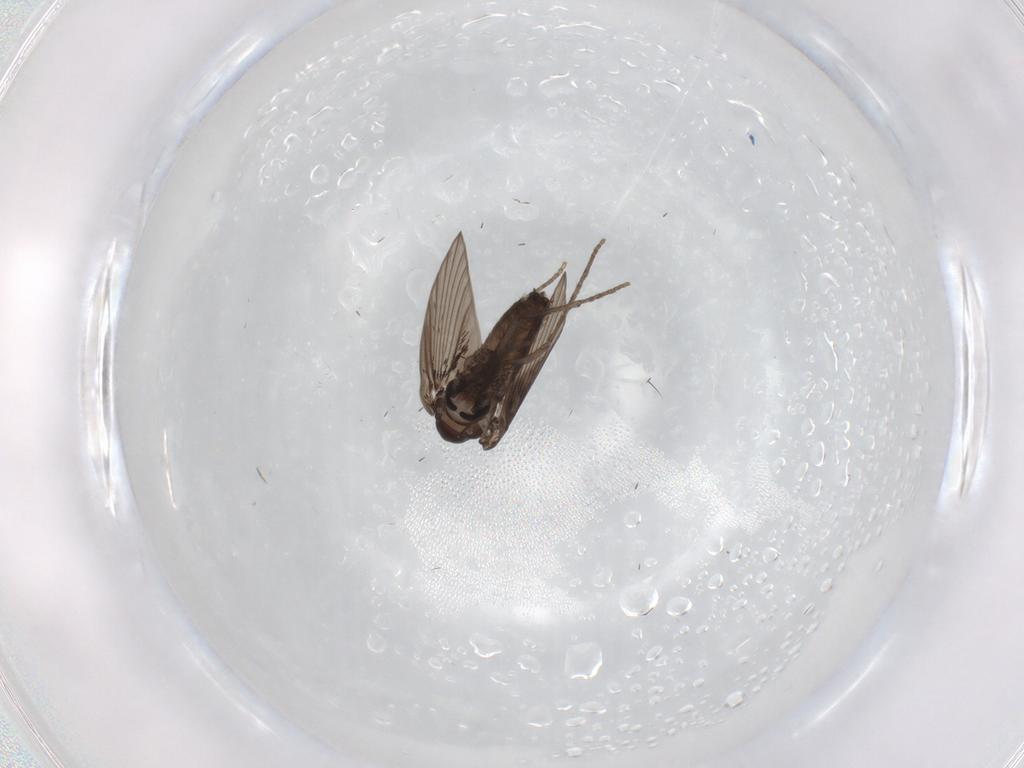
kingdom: Animalia
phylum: Arthropoda
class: Insecta
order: Diptera
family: Psychodidae
